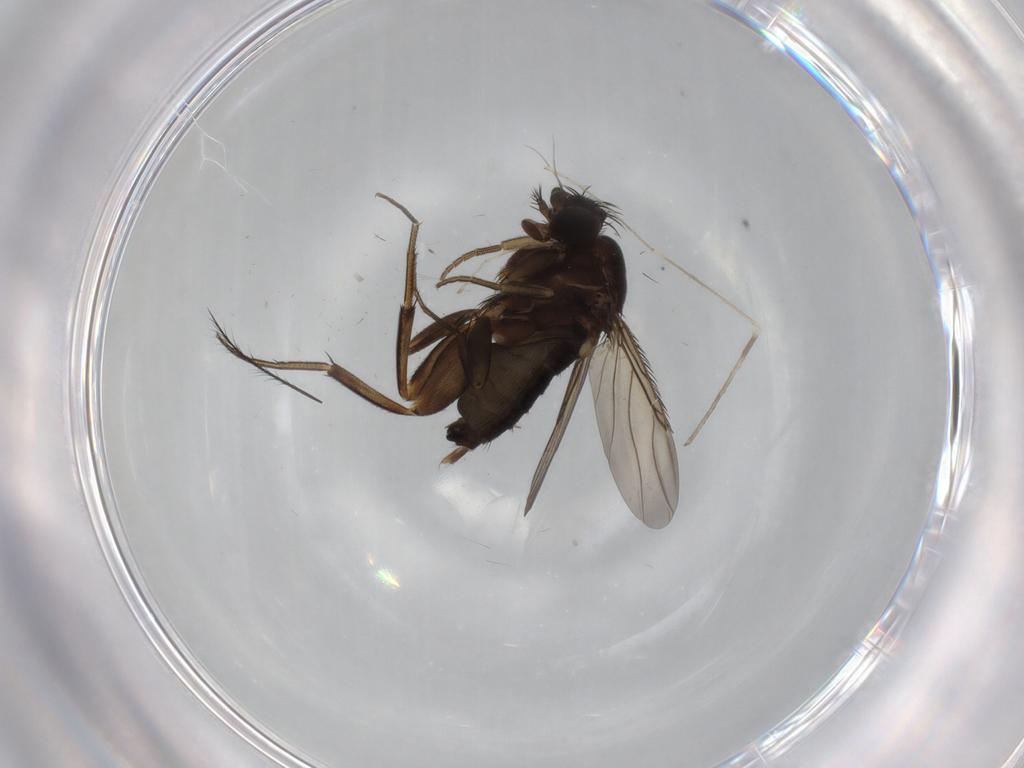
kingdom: Animalia
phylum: Arthropoda
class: Insecta
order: Diptera
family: Phoridae
